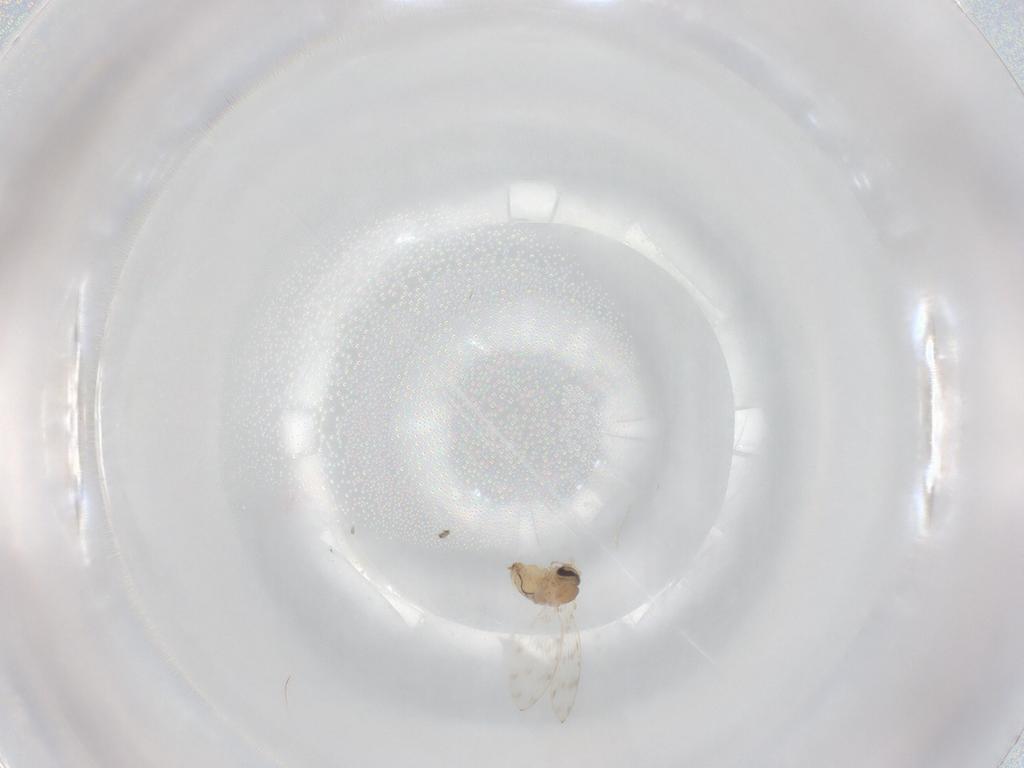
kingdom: Animalia
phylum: Arthropoda
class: Insecta
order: Diptera
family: Psychodidae
